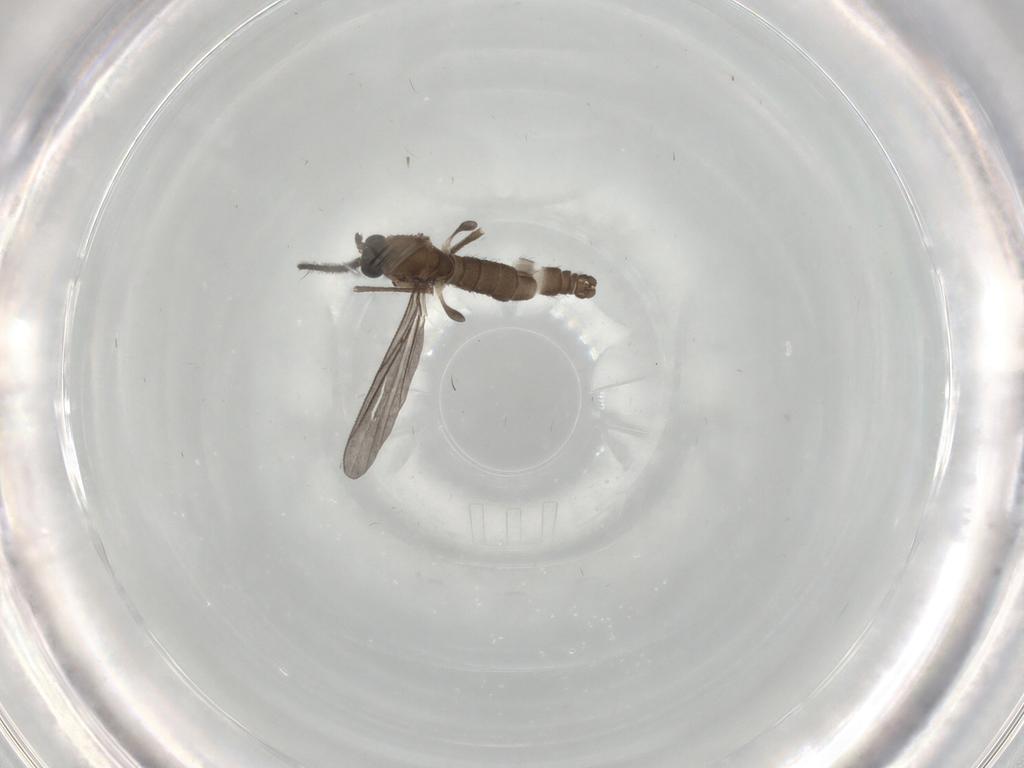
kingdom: Animalia
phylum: Arthropoda
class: Insecta
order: Diptera
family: Sciaridae
